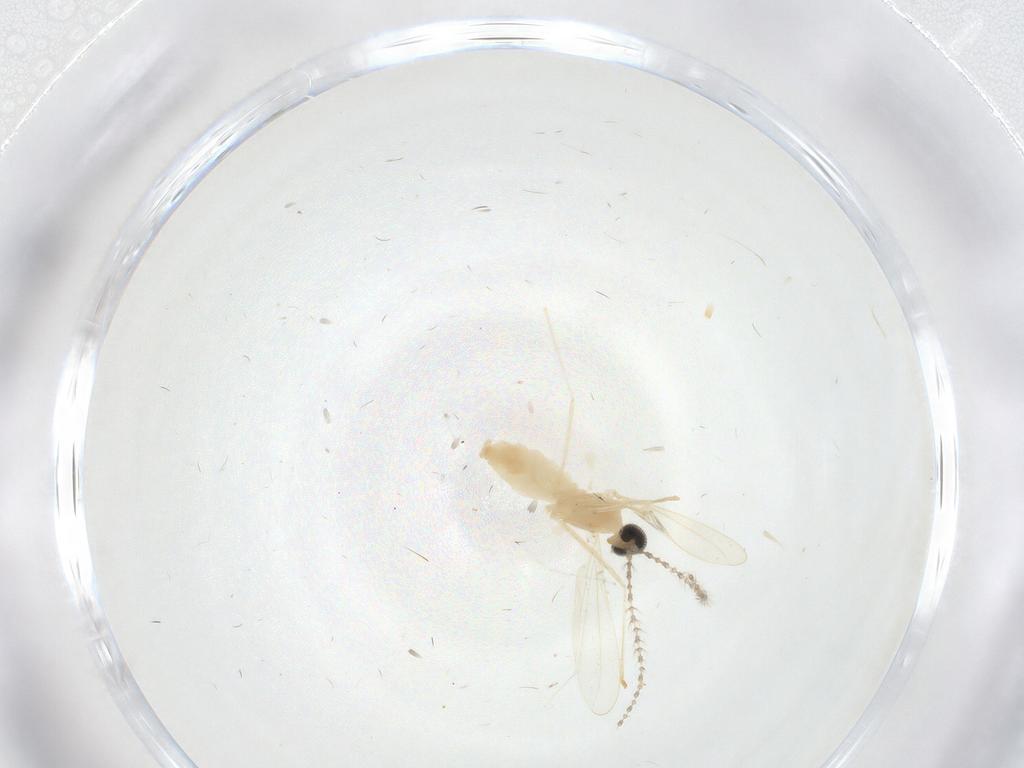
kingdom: Animalia
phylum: Arthropoda
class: Insecta
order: Diptera
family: Cecidomyiidae
